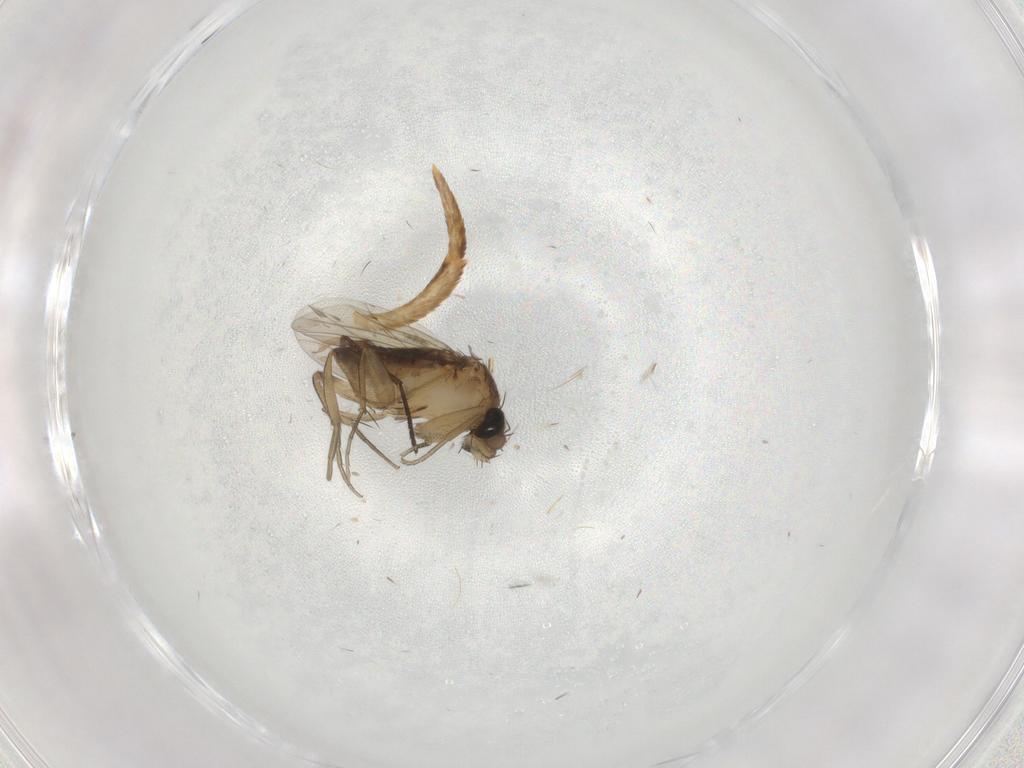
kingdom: Animalia
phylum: Arthropoda
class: Insecta
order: Diptera
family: Phoridae
